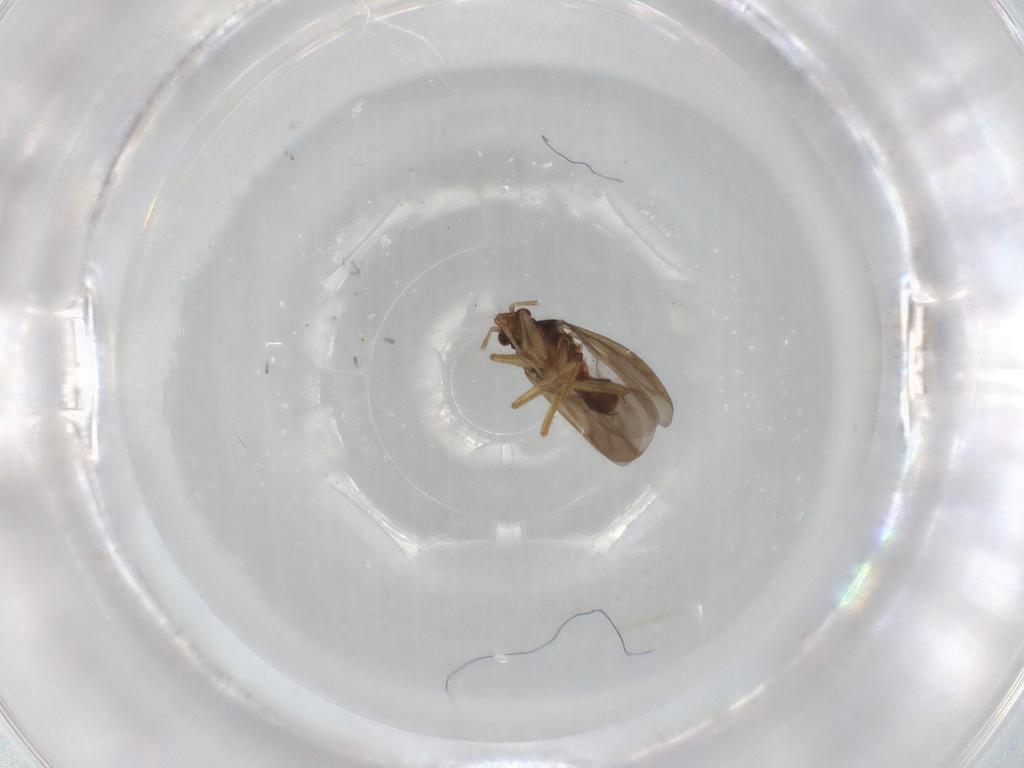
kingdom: Animalia
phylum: Arthropoda
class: Insecta
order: Hemiptera
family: Ceratocombidae
